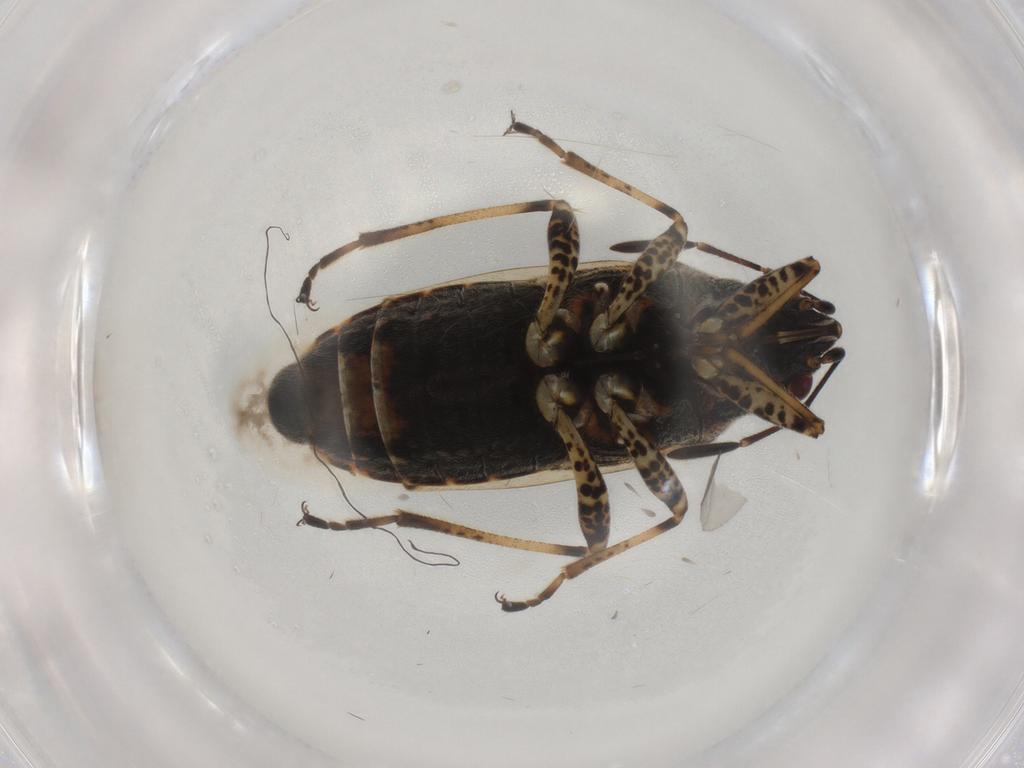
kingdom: Animalia
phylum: Arthropoda
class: Insecta
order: Hemiptera
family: Lygaeidae
